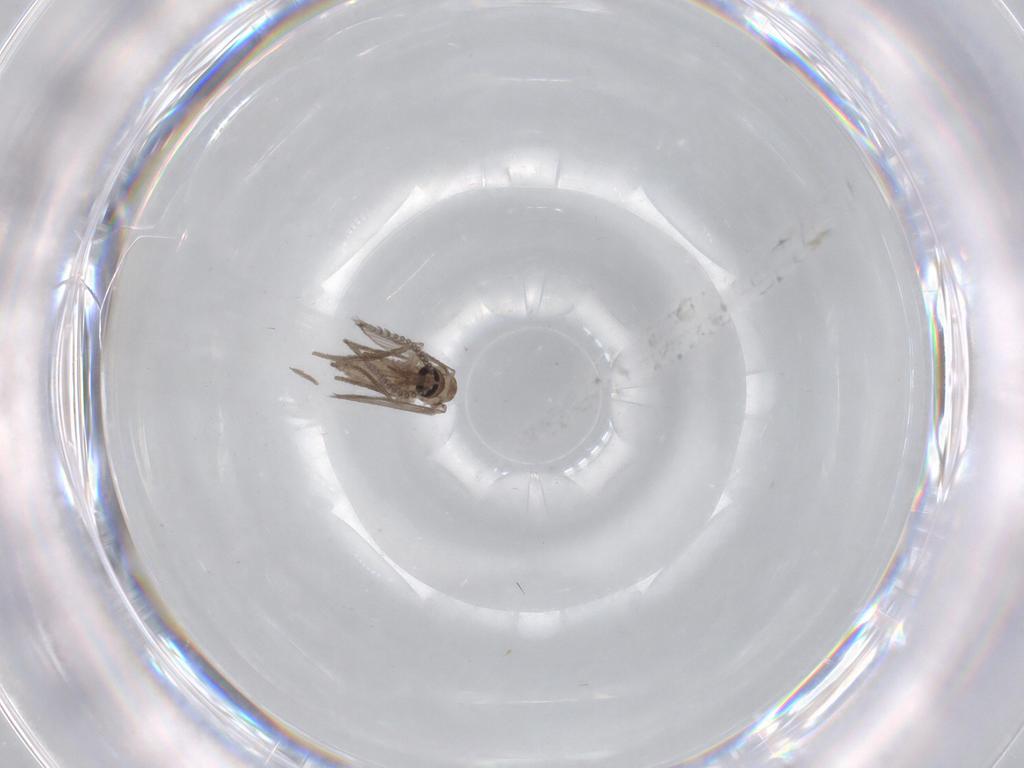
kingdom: Animalia
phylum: Arthropoda
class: Insecta
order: Diptera
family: Psychodidae
